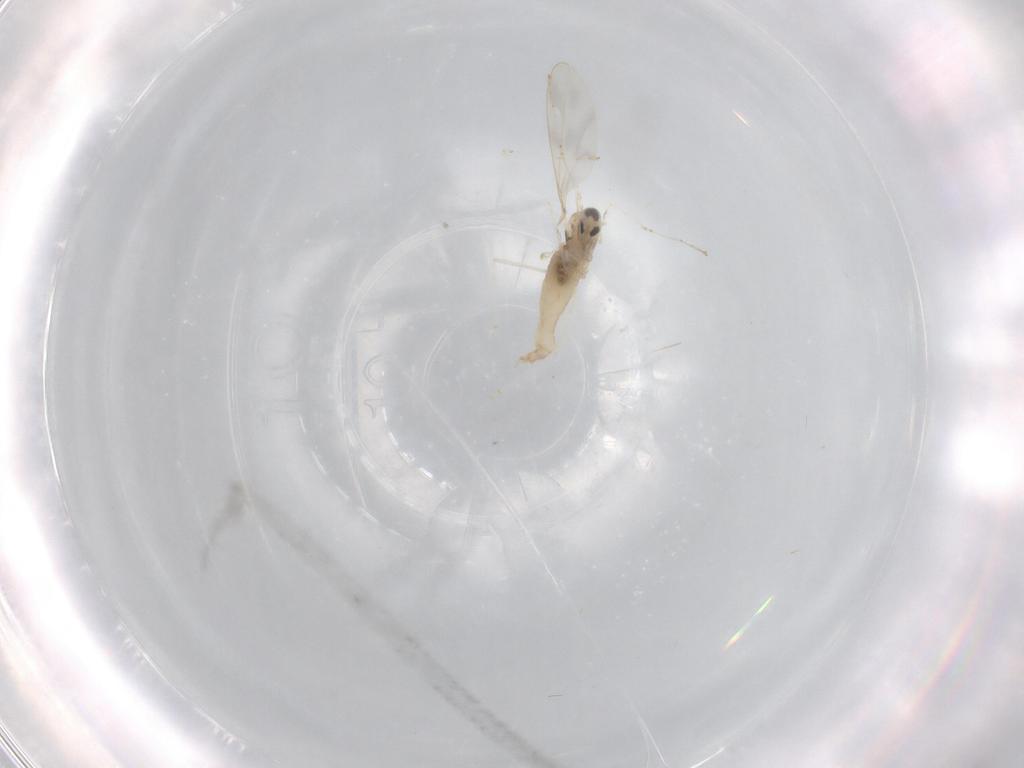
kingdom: Animalia
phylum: Arthropoda
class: Insecta
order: Diptera
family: Cecidomyiidae
